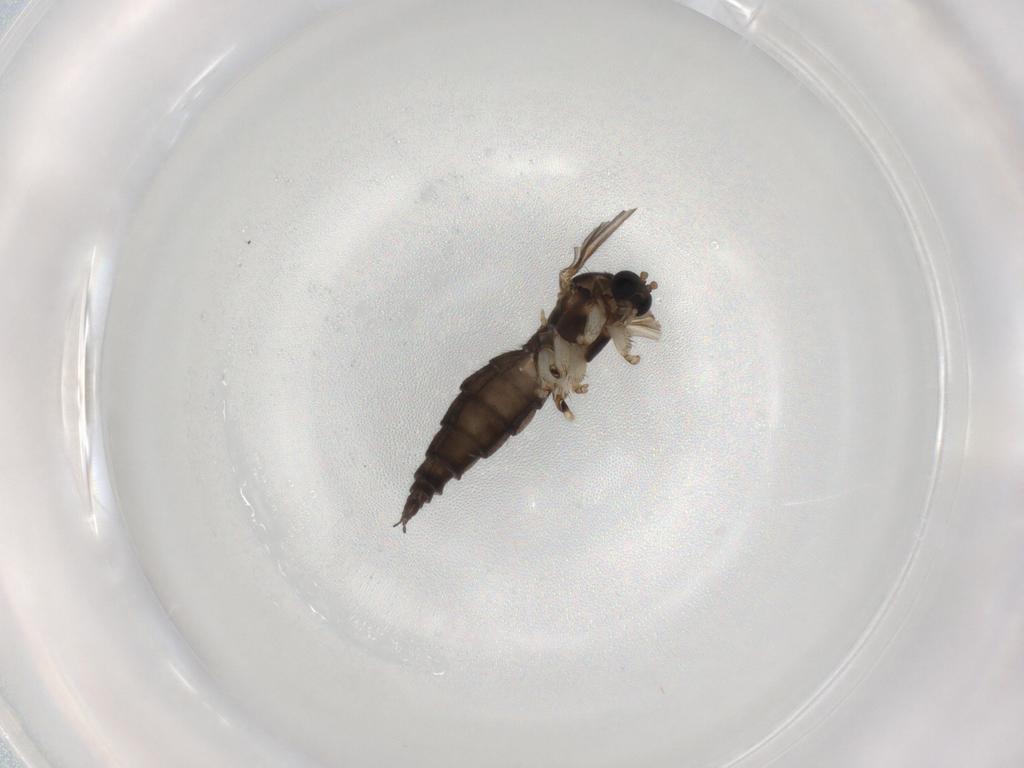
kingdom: Animalia
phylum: Arthropoda
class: Insecta
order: Diptera
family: Sciaridae
